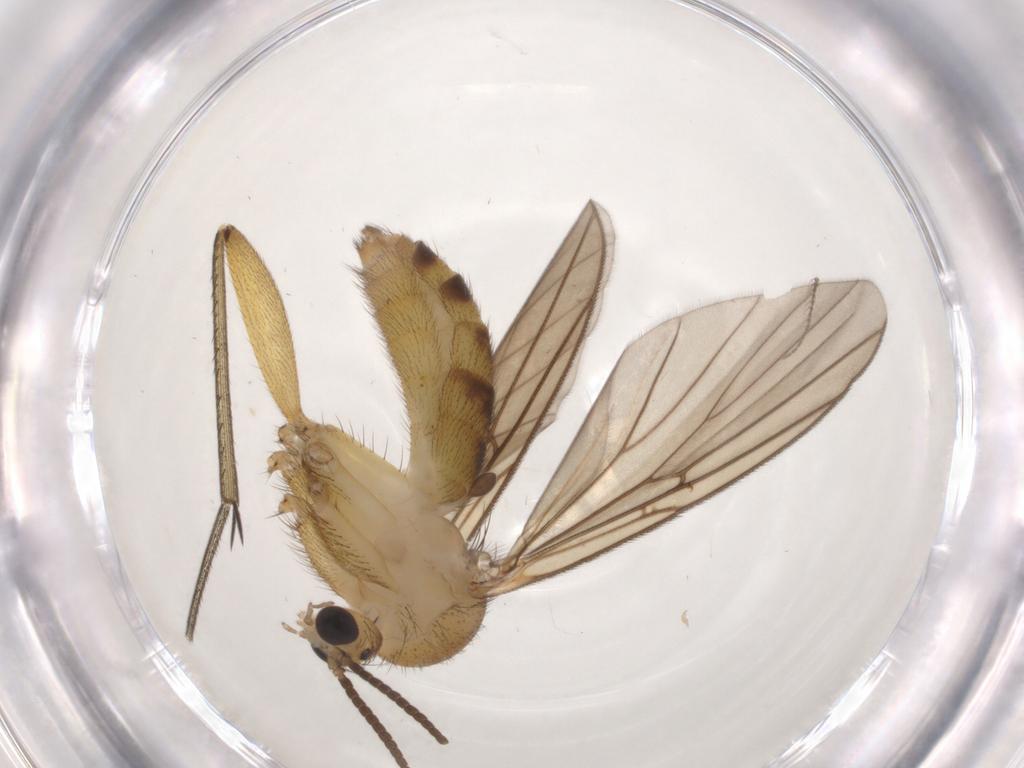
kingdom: Animalia
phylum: Arthropoda
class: Insecta
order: Diptera
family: Mycetophilidae
